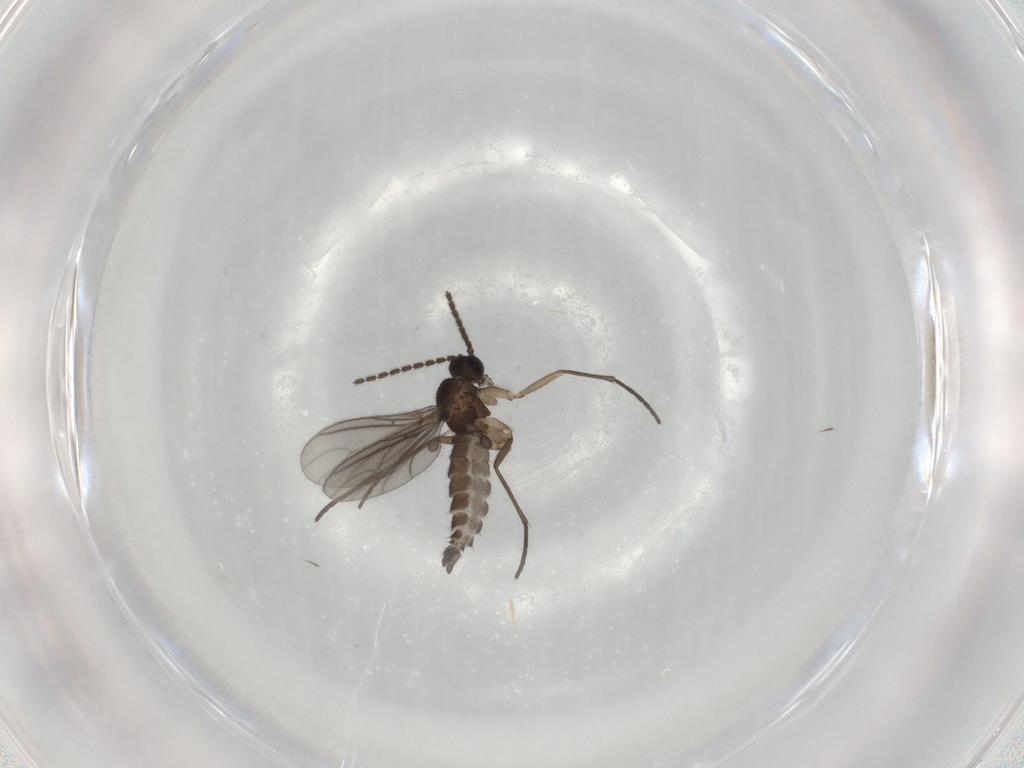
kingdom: Animalia
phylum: Arthropoda
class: Insecta
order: Diptera
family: Sciaridae
